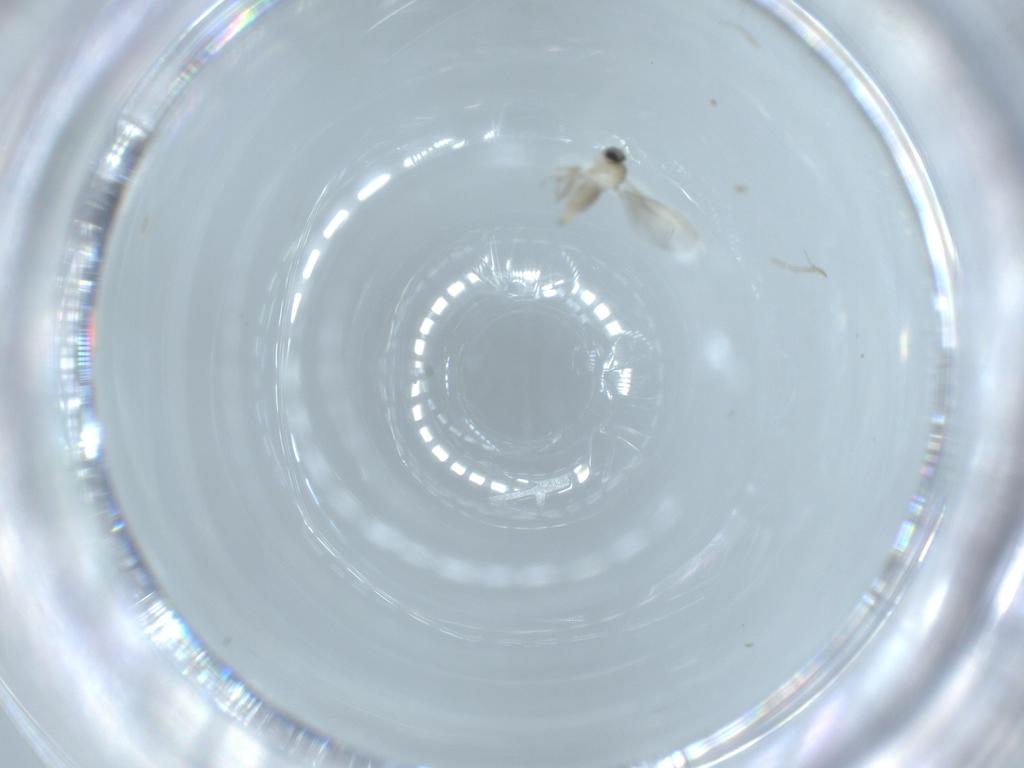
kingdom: Animalia
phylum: Arthropoda
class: Insecta
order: Diptera
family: Cecidomyiidae
